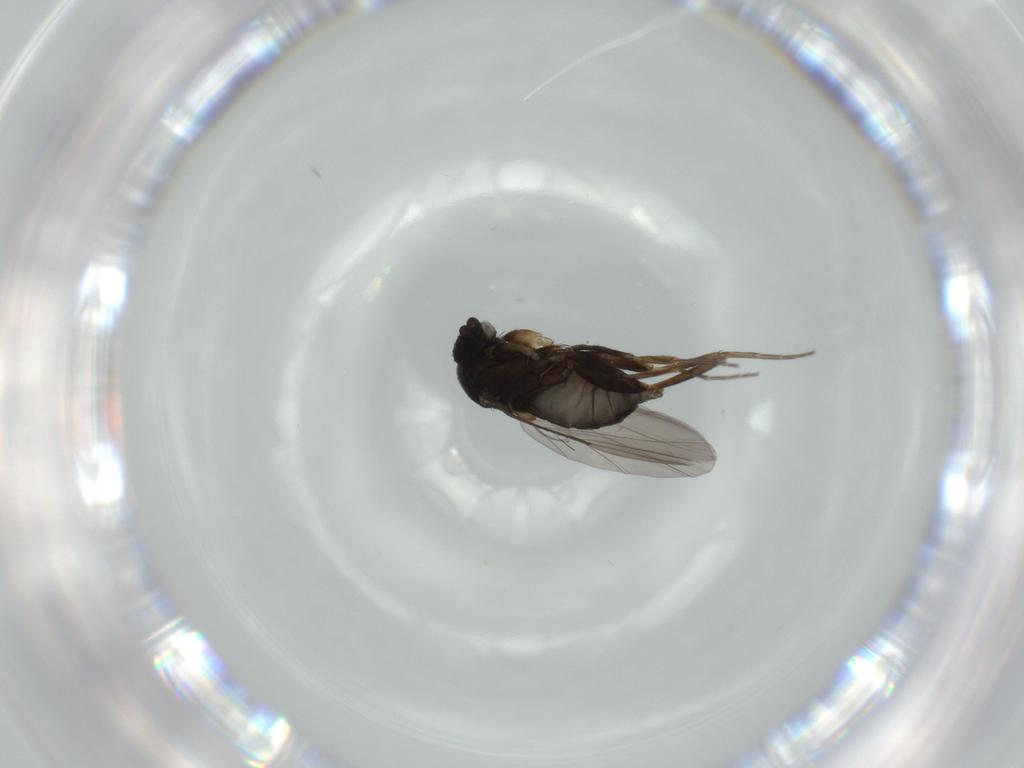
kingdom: Animalia
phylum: Arthropoda
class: Insecta
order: Diptera
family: Phoridae
